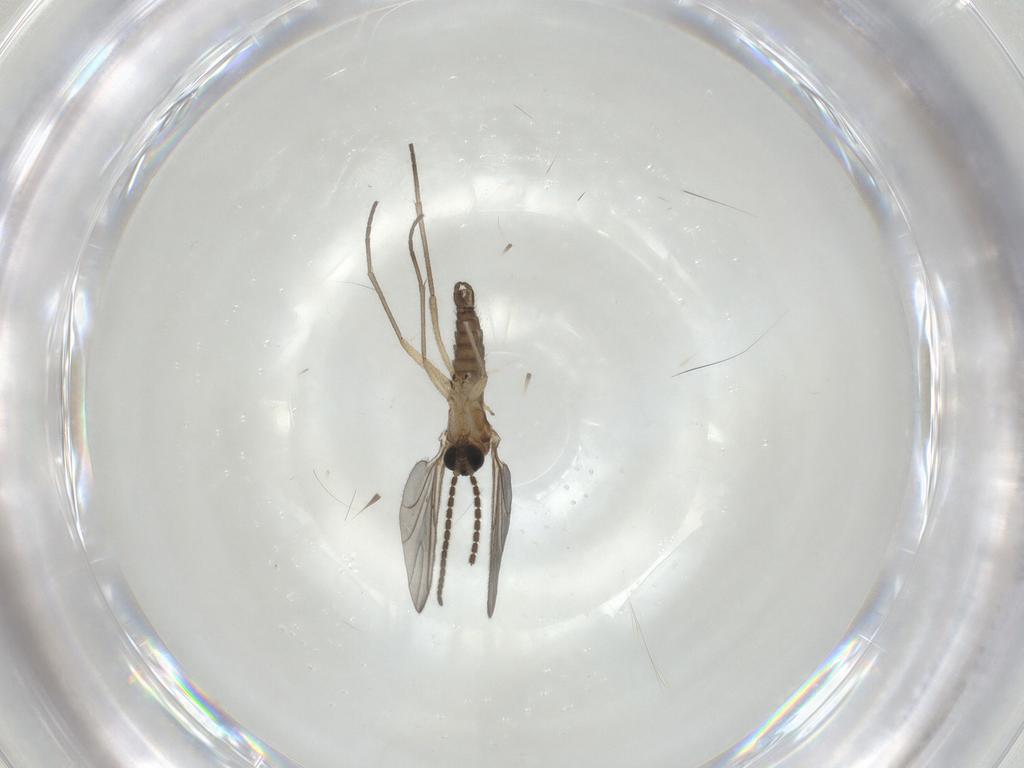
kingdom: Animalia
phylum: Arthropoda
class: Insecta
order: Diptera
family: Sciaridae
